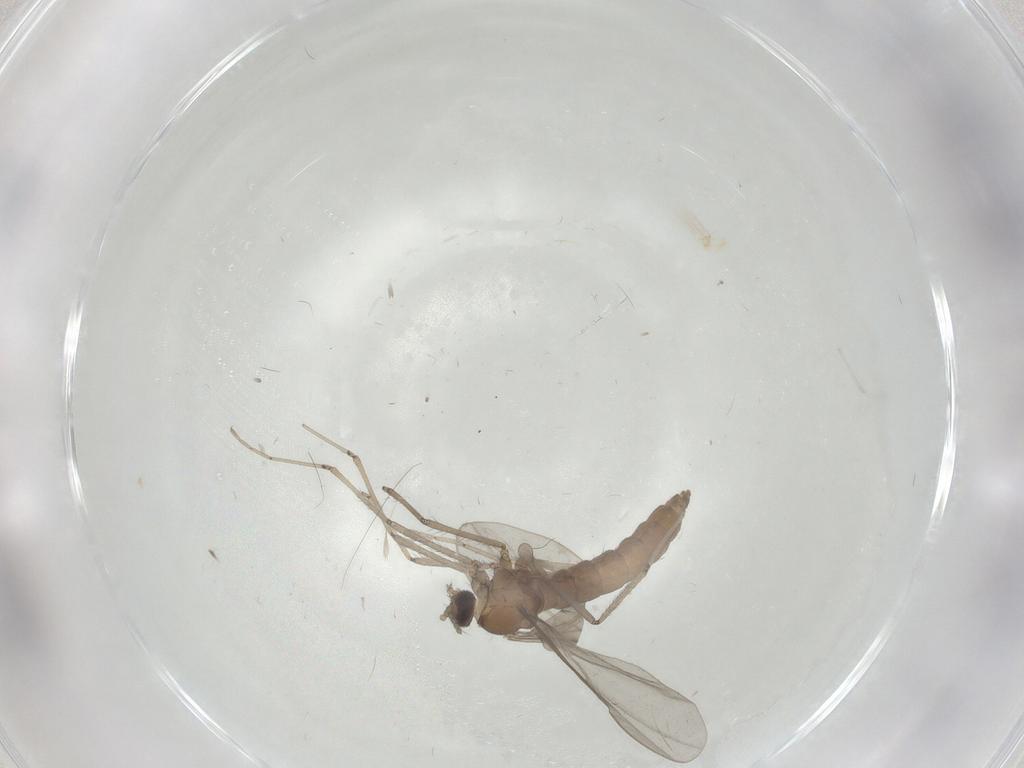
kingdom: Animalia
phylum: Arthropoda
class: Insecta
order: Diptera
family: Cecidomyiidae
